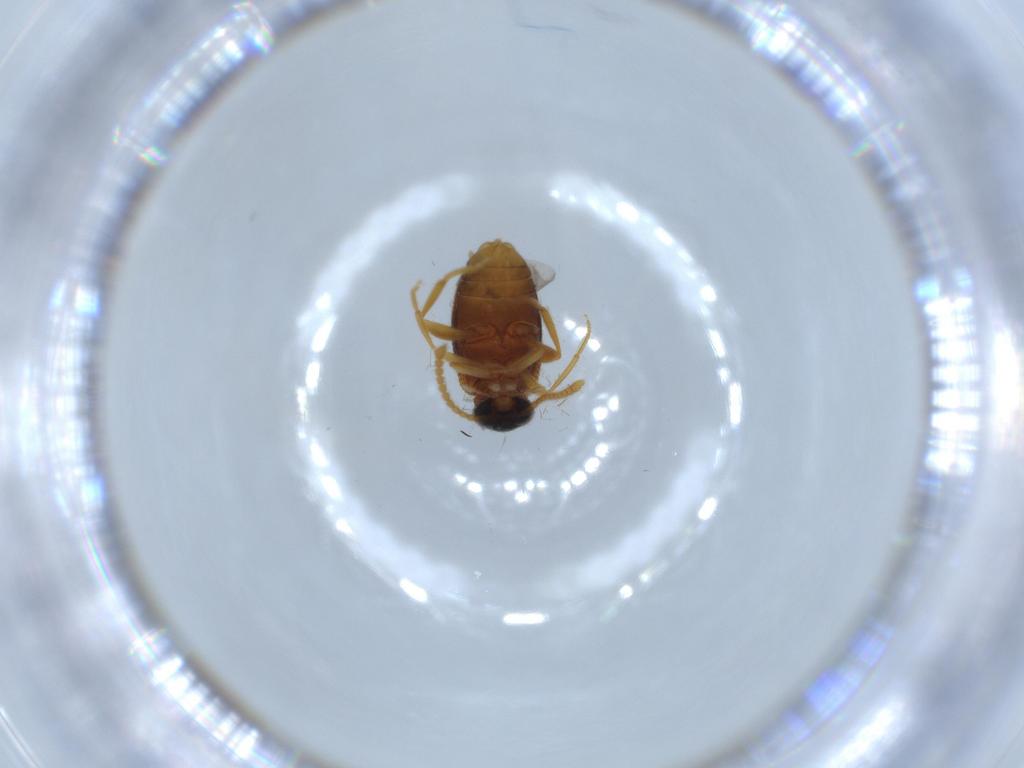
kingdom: Animalia
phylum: Arthropoda
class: Insecta
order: Coleoptera
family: Aderidae
